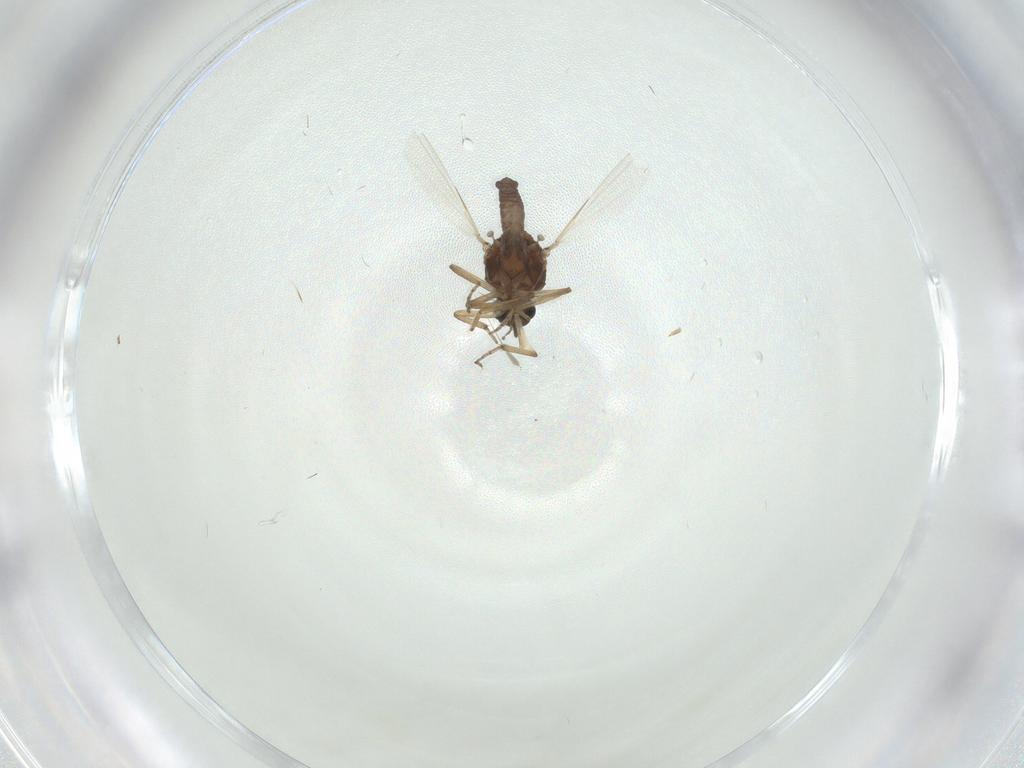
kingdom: Animalia
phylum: Arthropoda
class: Insecta
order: Diptera
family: Ceratopogonidae
